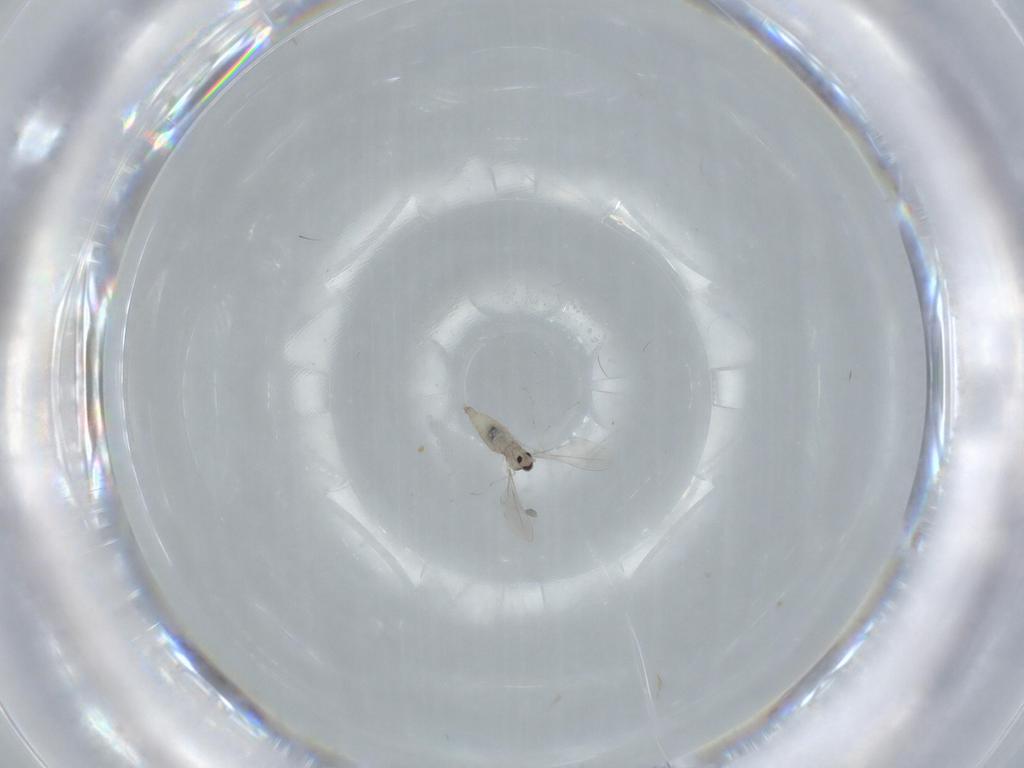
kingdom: Animalia
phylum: Arthropoda
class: Insecta
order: Diptera
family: Cecidomyiidae
